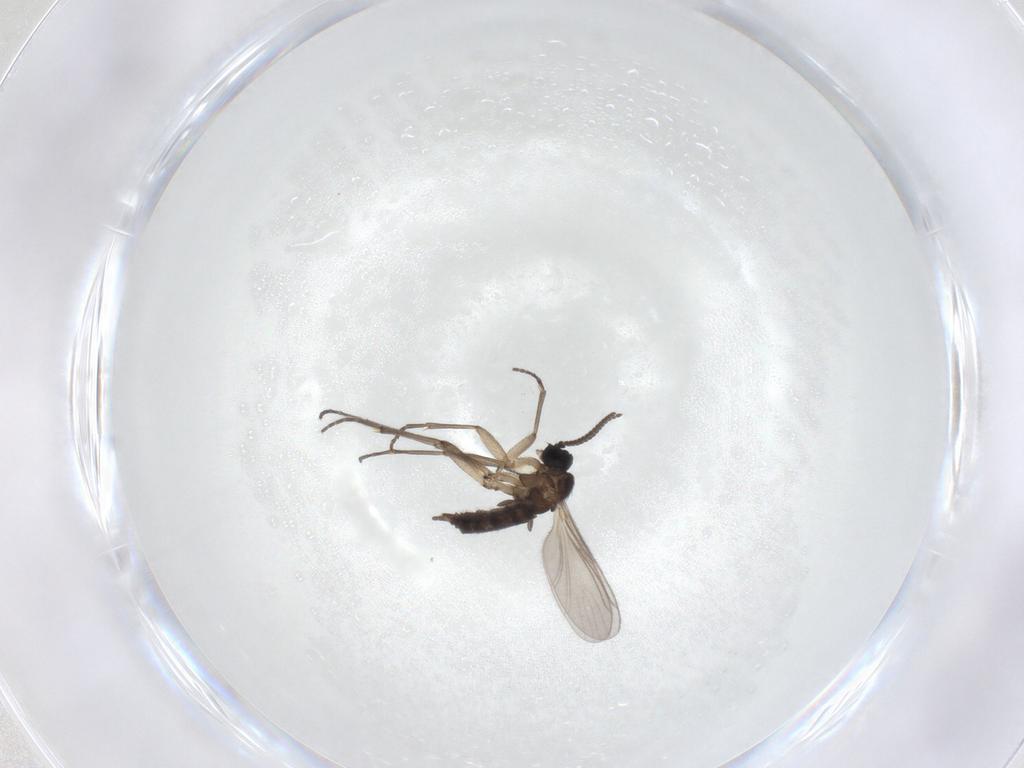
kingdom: Animalia
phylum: Arthropoda
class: Insecta
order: Diptera
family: Sciaridae
